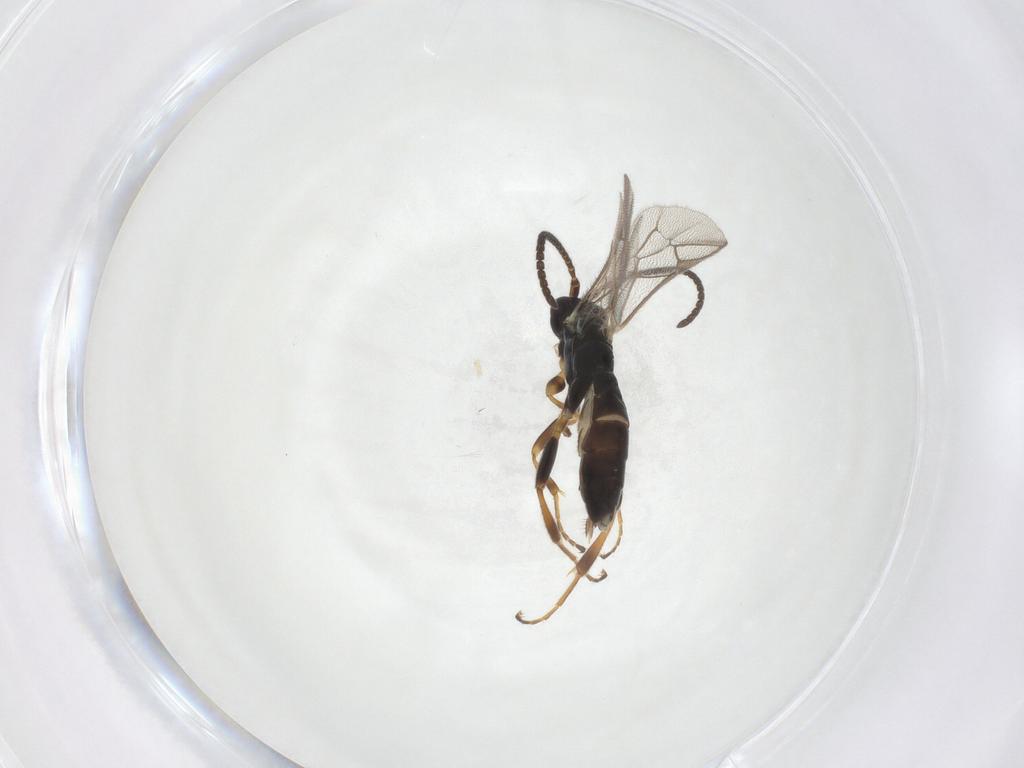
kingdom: Animalia
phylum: Arthropoda
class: Insecta
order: Hymenoptera
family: Ichneumonidae
